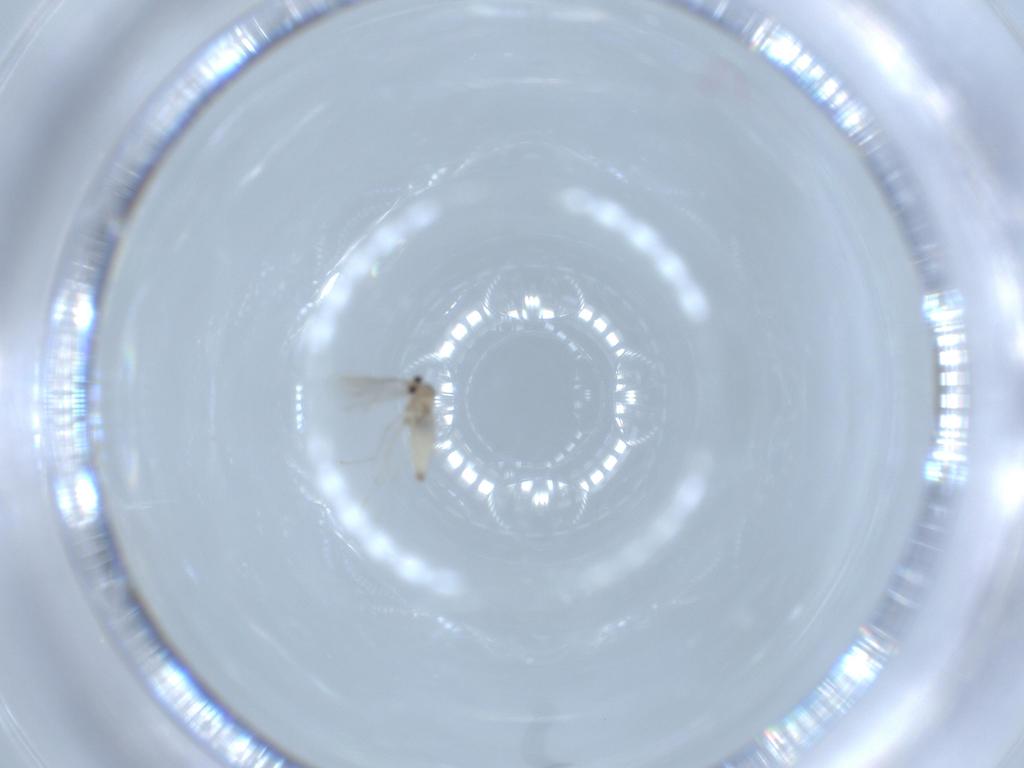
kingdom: Animalia
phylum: Arthropoda
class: Insecta
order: Diptera
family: Cecidomyiidae
